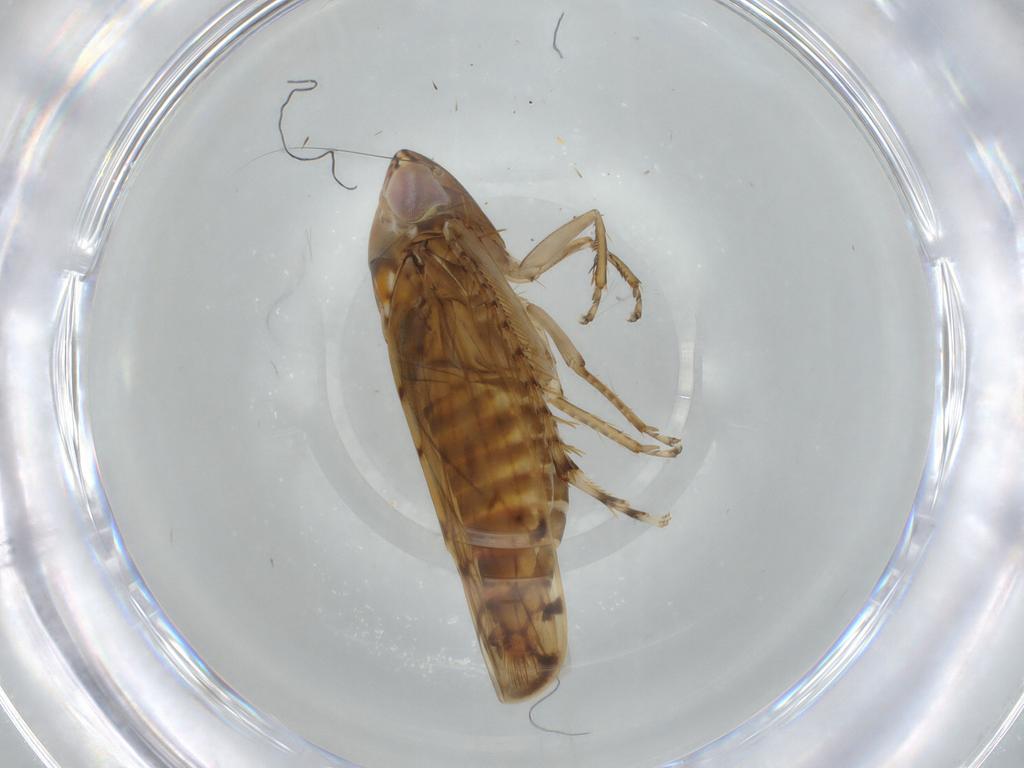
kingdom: Animalia
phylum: Arthropoda
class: Insecta
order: Hemiptera
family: Cicadellidae
